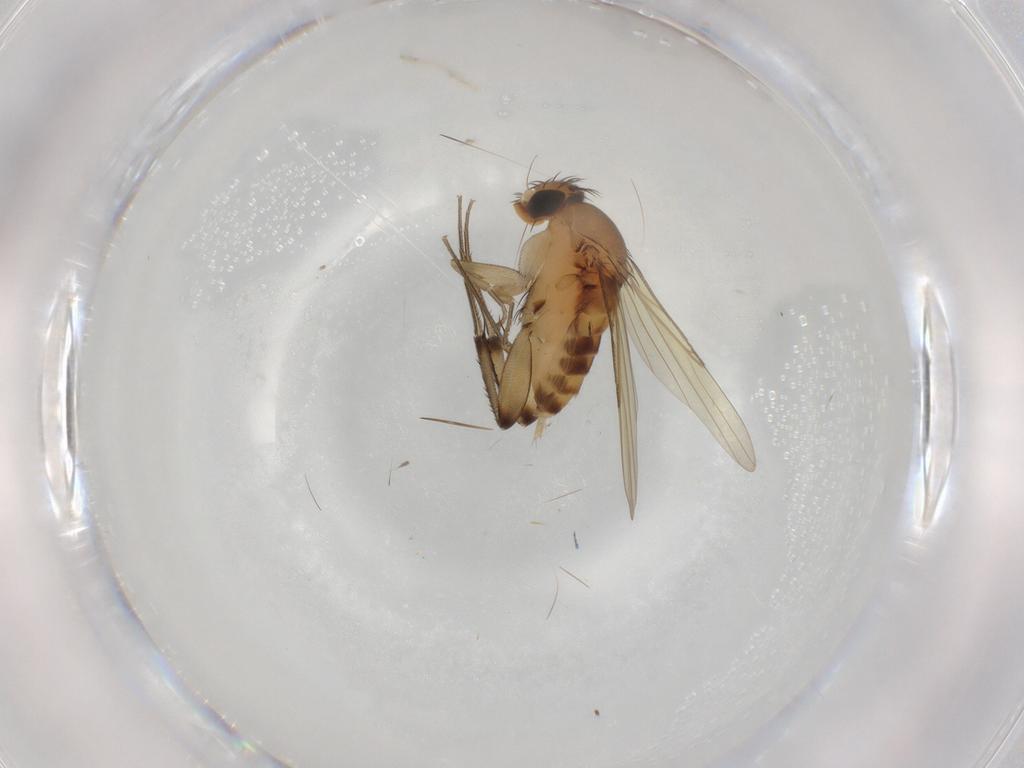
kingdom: Animalia
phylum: Arthropoda
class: Insecta
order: Diptera
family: Phoridae
